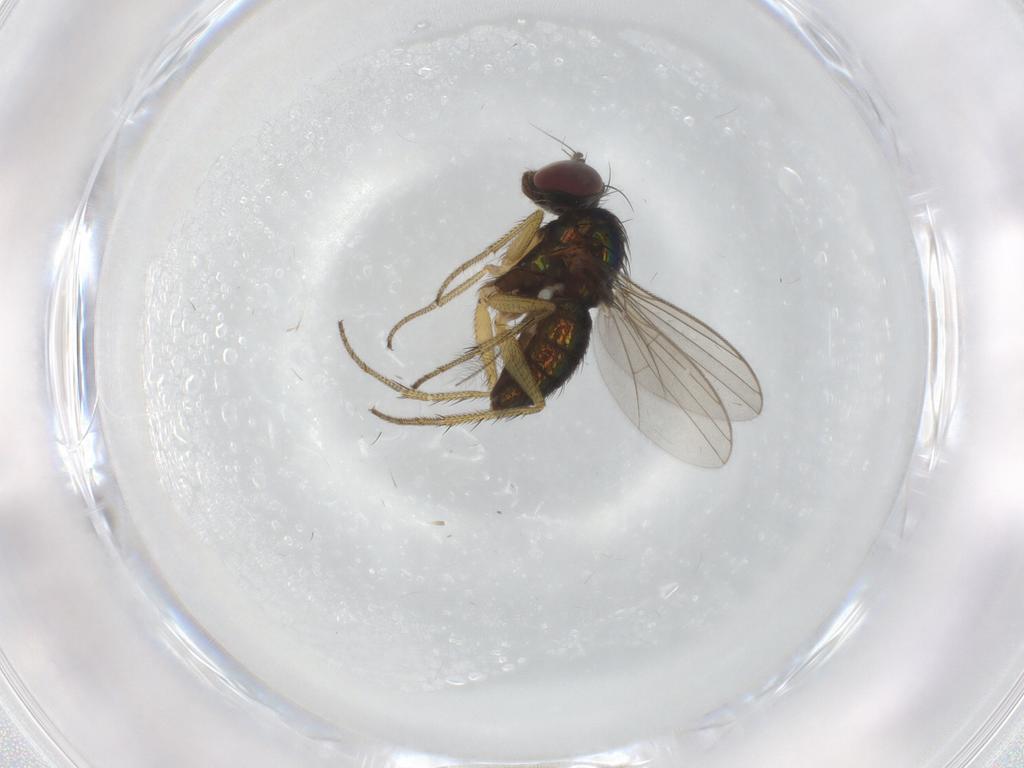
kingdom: Animalia
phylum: Arthropoda
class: Insecta
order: Diptera
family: Chironomidae
